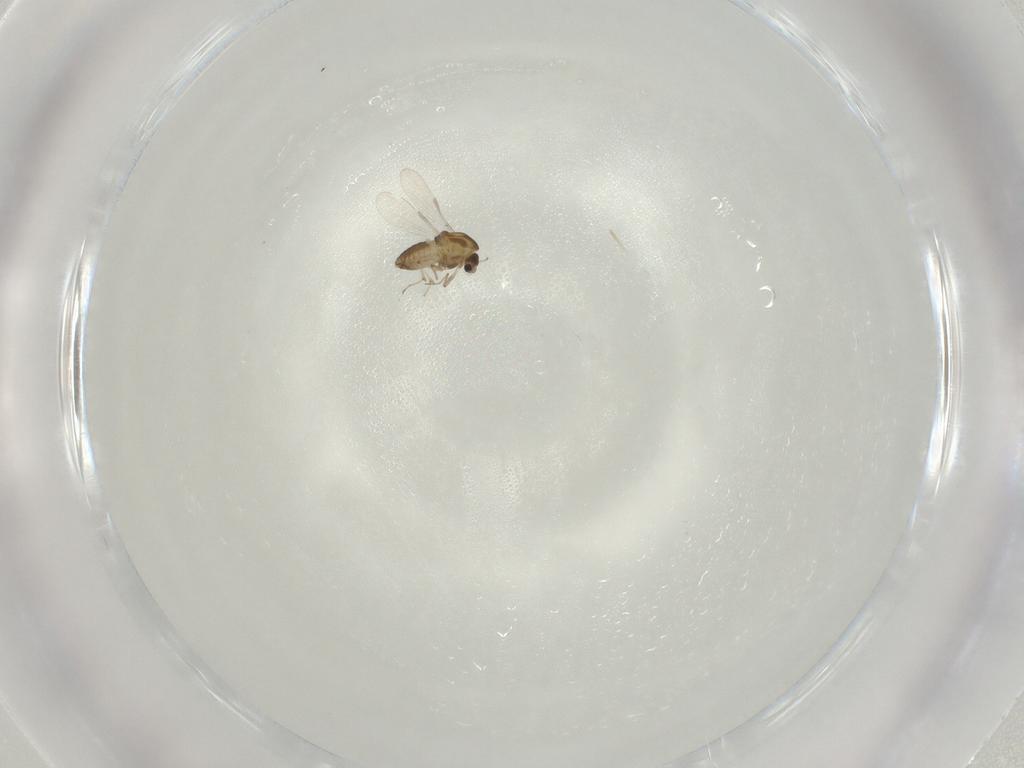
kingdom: Animalia
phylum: Arthropoda
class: Insecta
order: Diptera
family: Chironomidae
